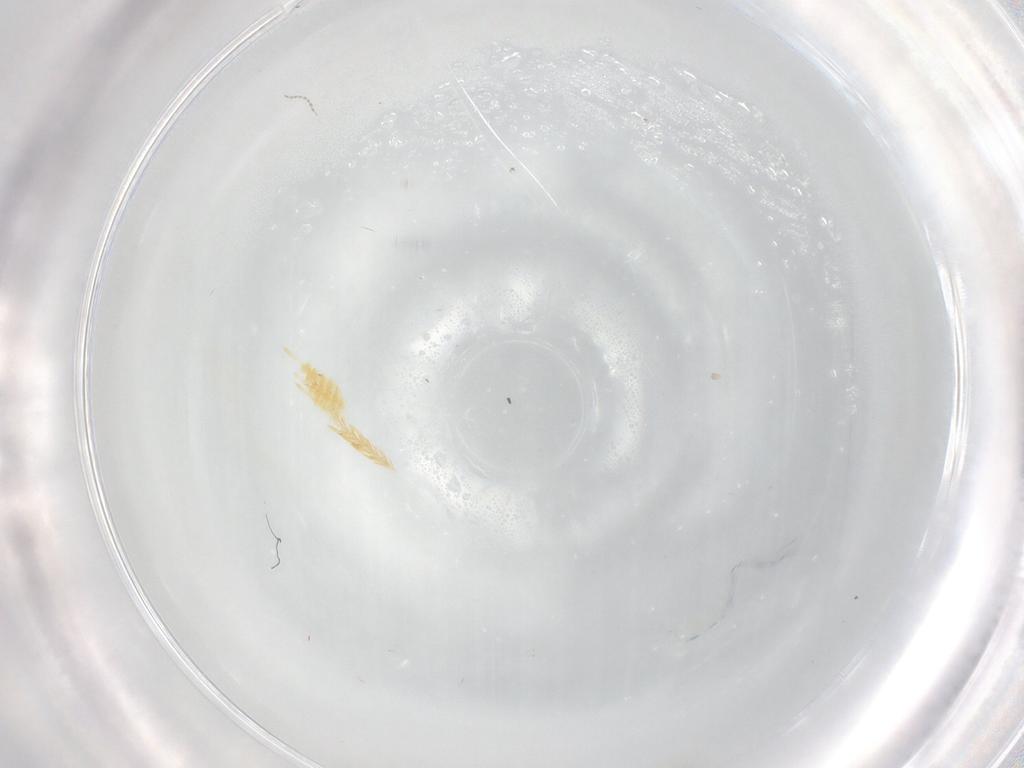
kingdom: Animalia
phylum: Arthropoda
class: Insecta
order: Diptera
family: Cecidomyiidae
